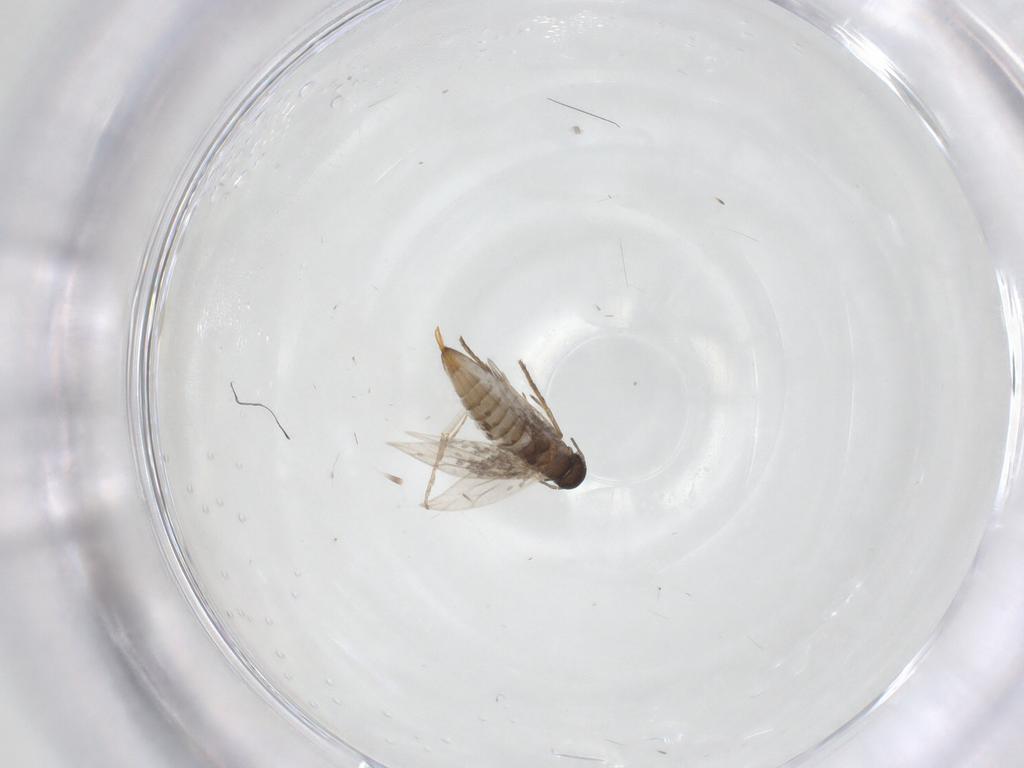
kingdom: Animalia
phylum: Arthropoda
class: Insecta
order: Lepidoptera
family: Heliozelidae
